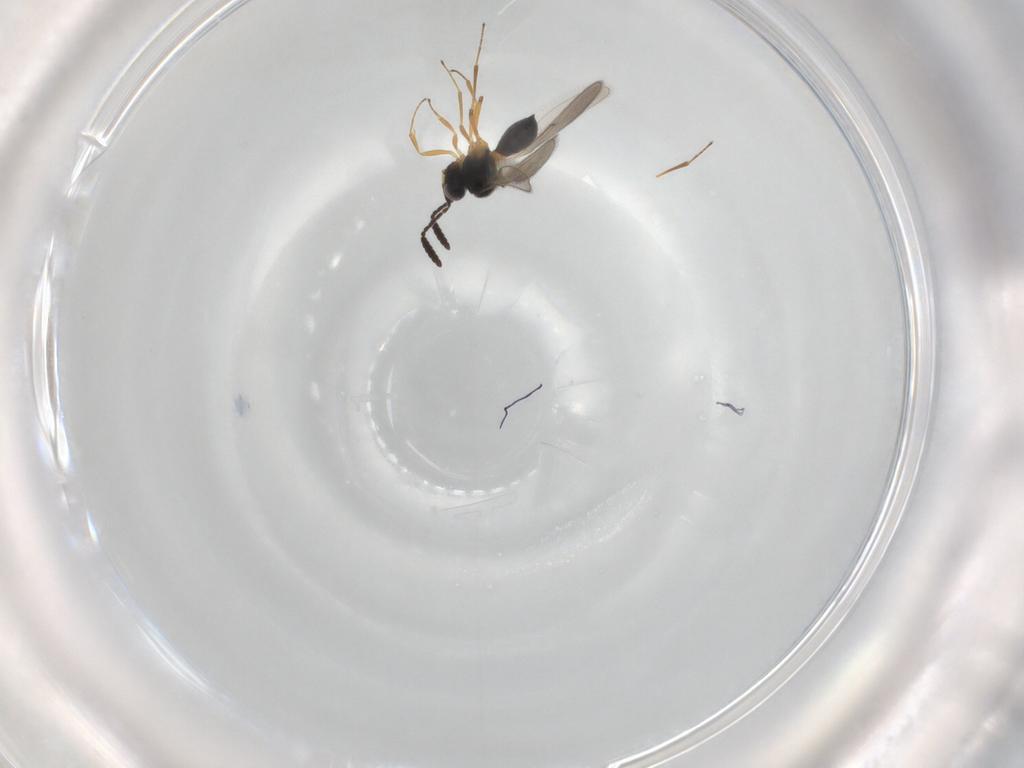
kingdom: Animalia
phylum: Arthropoda
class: Insecta
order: Hymenoptera
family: Scelionidae
